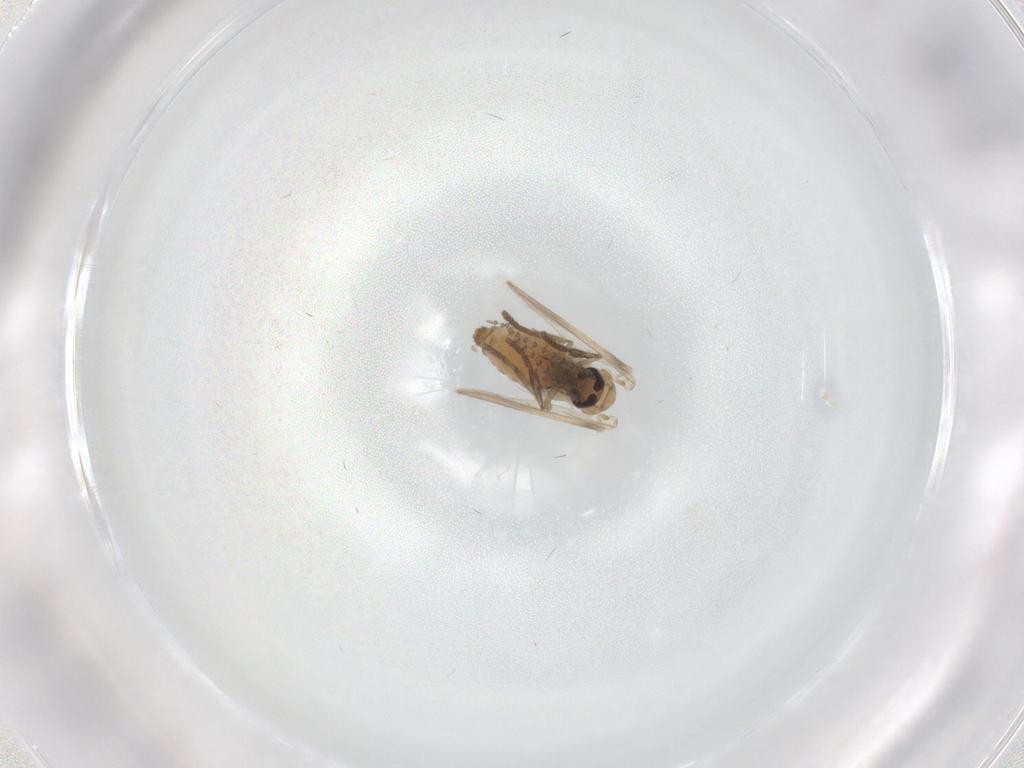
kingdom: Animalia
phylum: Arthropoda
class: Insecta
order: Diptera
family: Psychodidae
